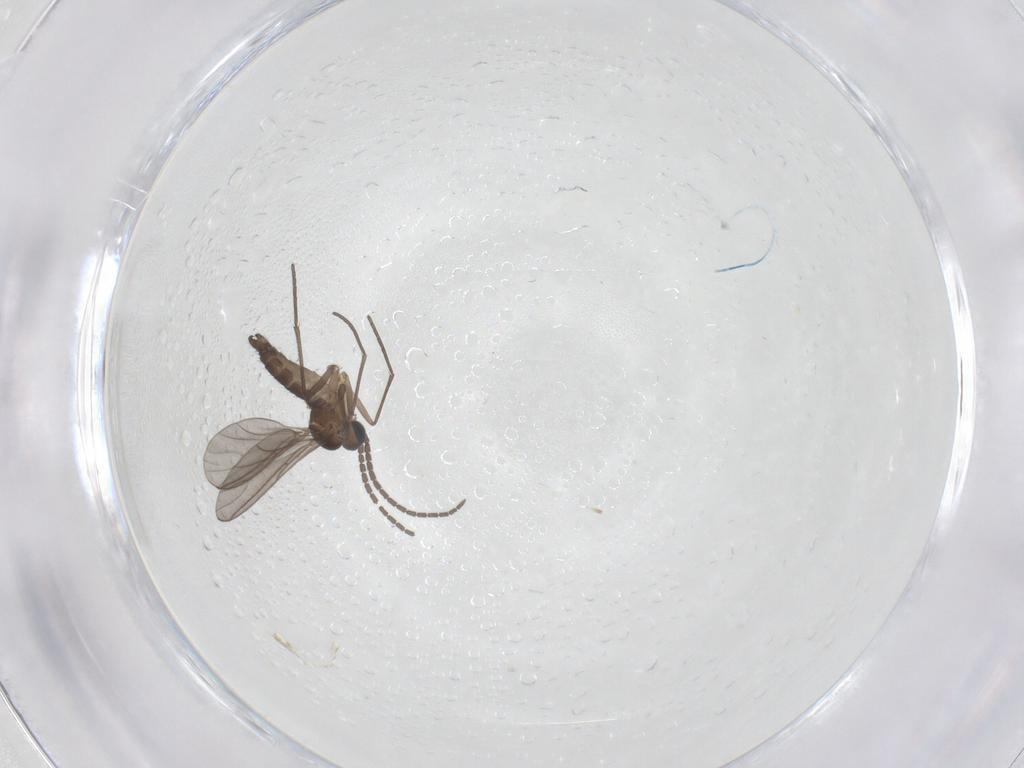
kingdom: Animalia
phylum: Arthropoda
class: Insecta
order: Diptera
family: Sciaridae
